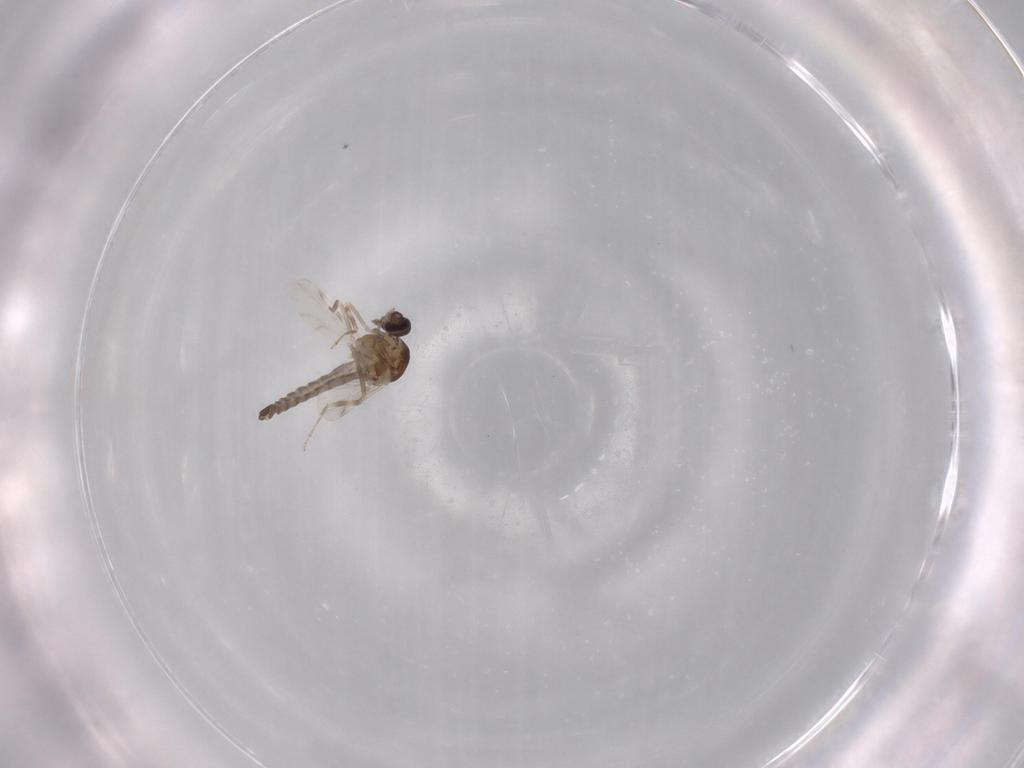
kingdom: Animalia
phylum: Arthropoda
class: Insecta
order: Diptera
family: Ceratopogonidae
